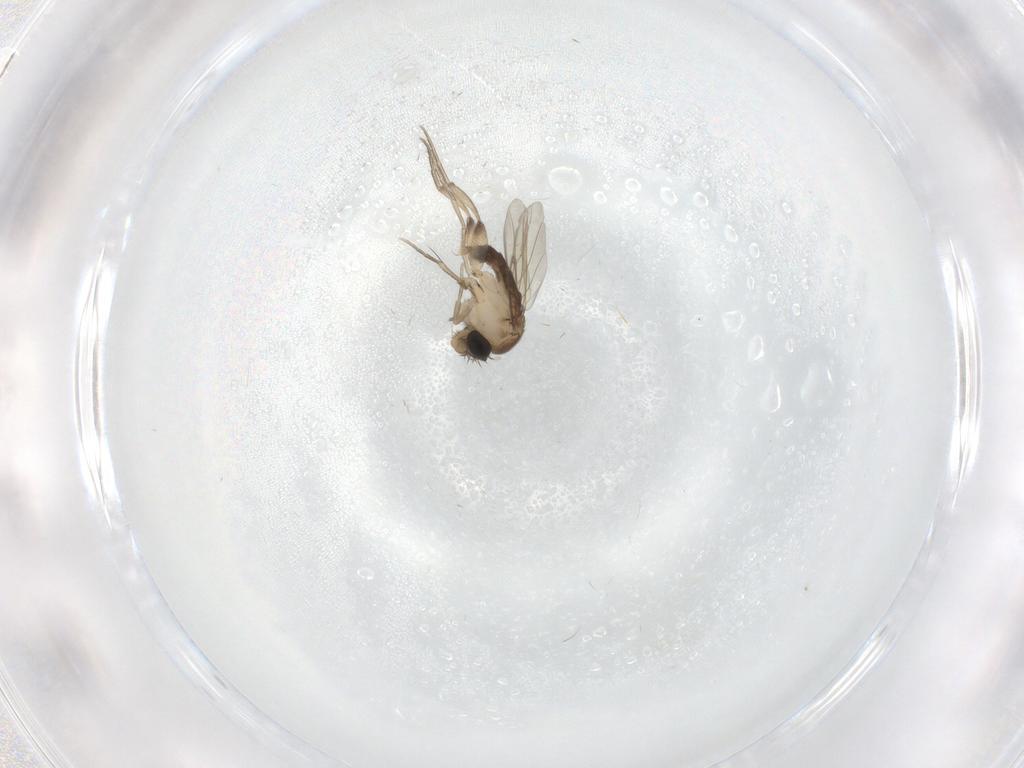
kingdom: Animalia
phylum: Arthropoda
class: Insecta
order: Diptera
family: Phoridae
